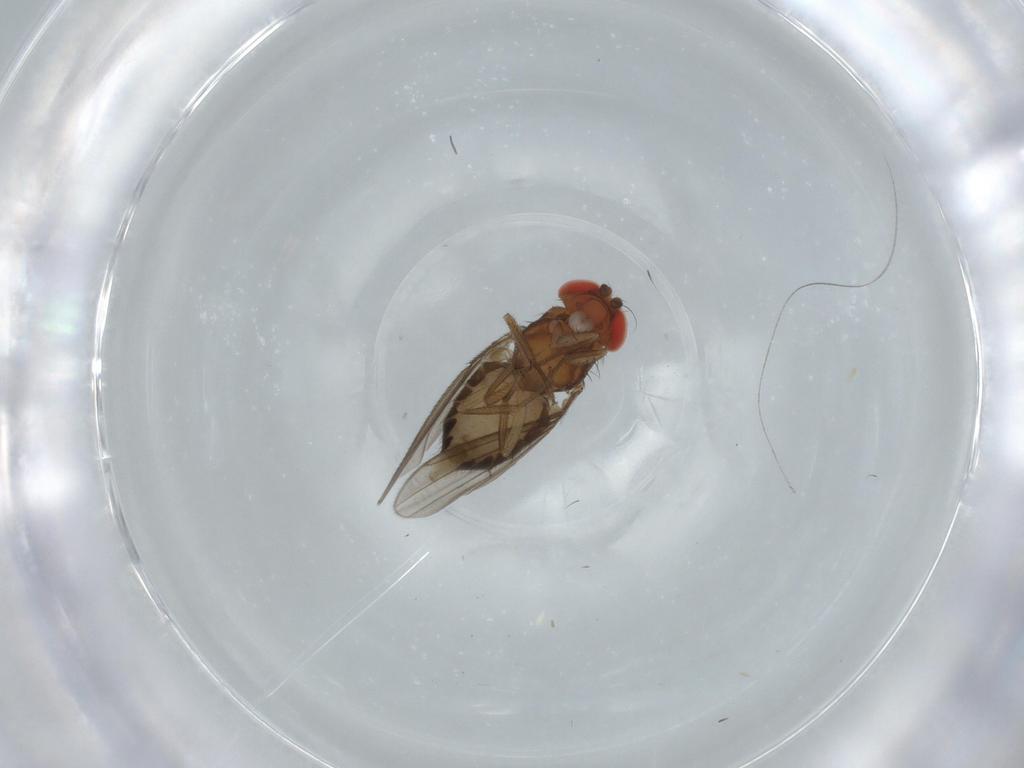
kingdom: Animalia
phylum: Arthropoda
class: Insecta
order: Diptera
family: Drosophilidae
